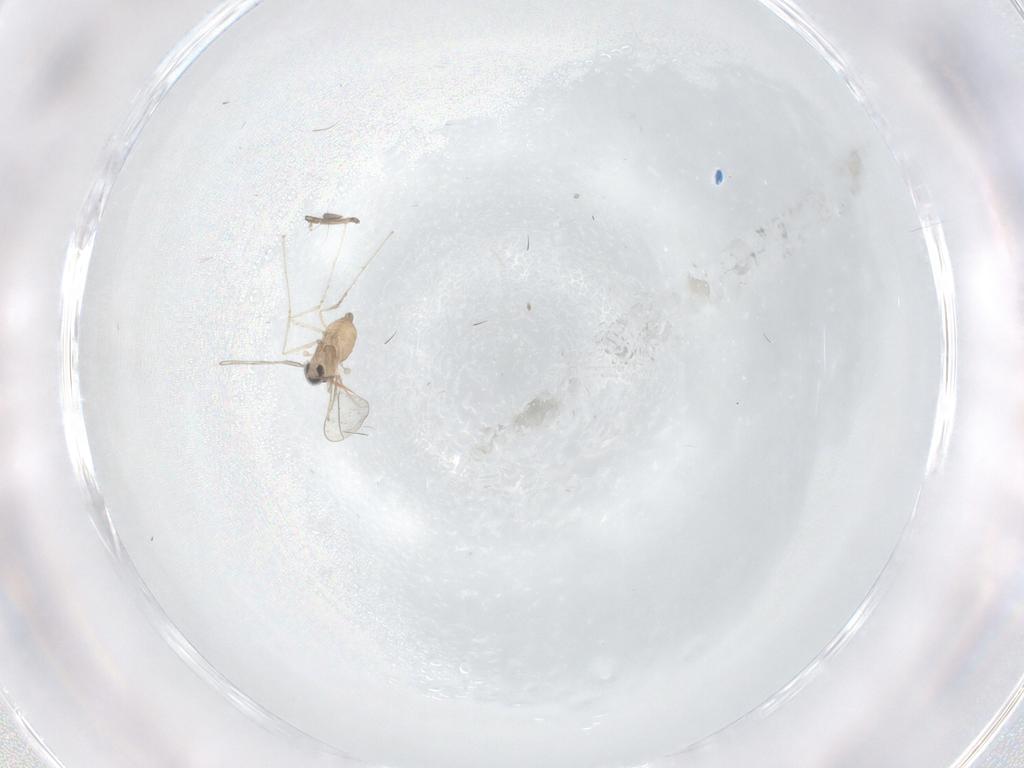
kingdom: Animalia
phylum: Arthropoda
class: Insecta
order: Diptera
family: Cecidomyiidae
